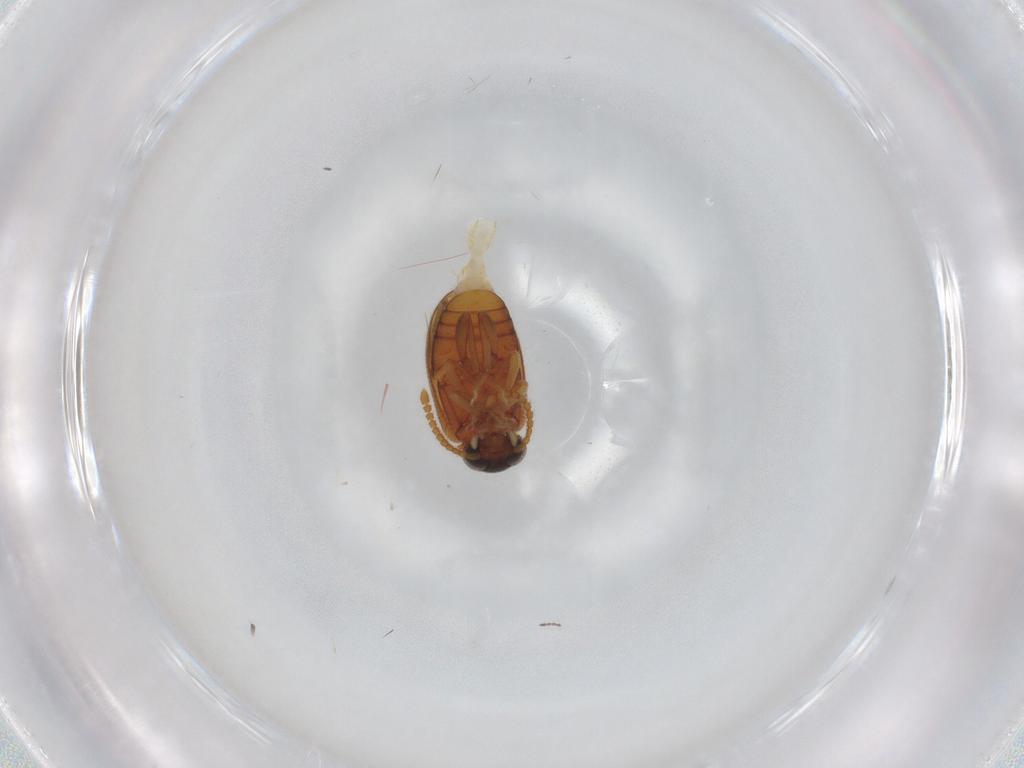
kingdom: Animalia
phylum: Arthropoda
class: Insecta
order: Coleoptera
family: Aderidae
